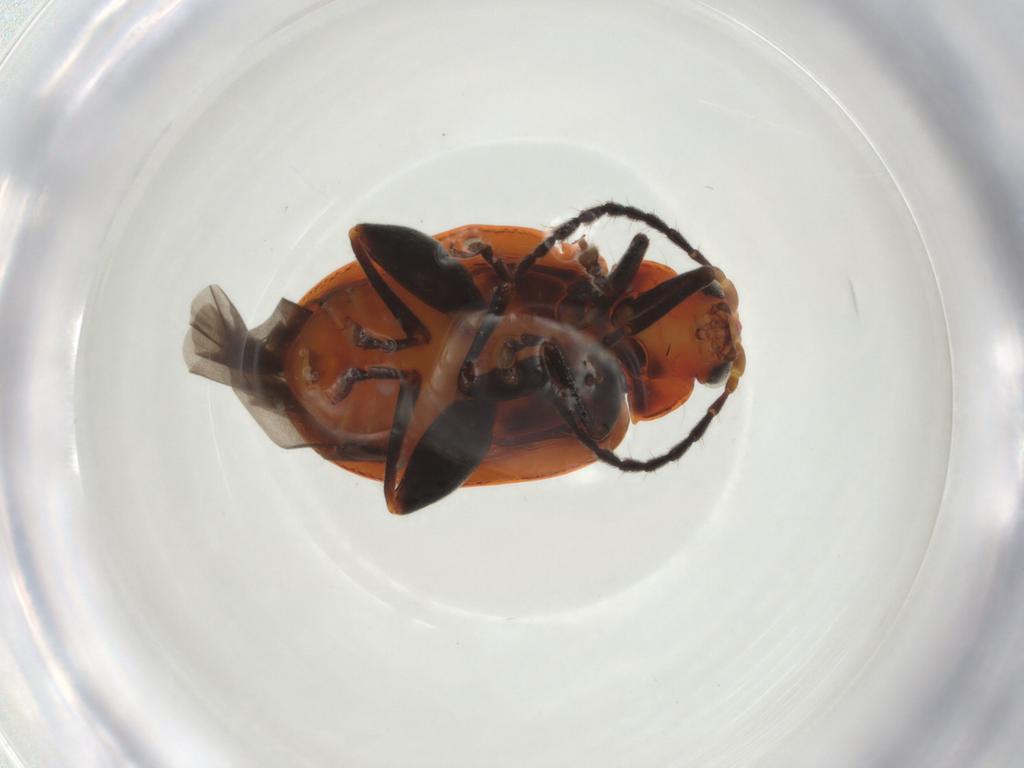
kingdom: Animalia
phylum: Arthropoda
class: Insecta
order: Coleoptera
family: Chrysomelidae
